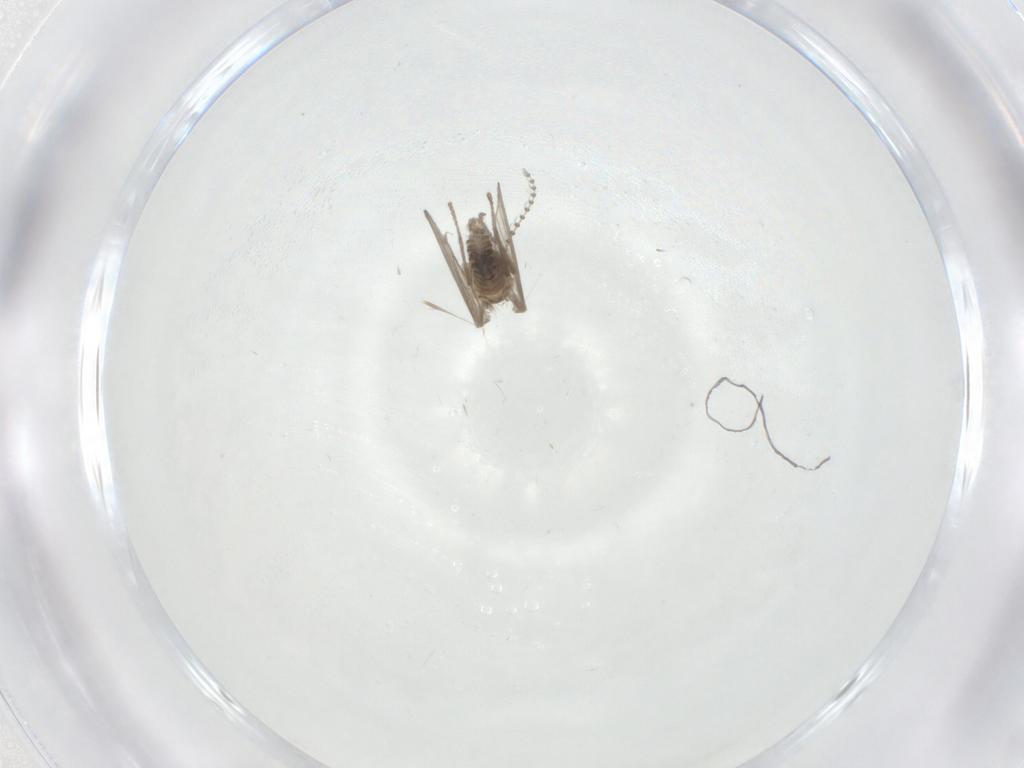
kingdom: Animalia
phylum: Arthropoda
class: Insecta
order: Diptera
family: Psychodidae
